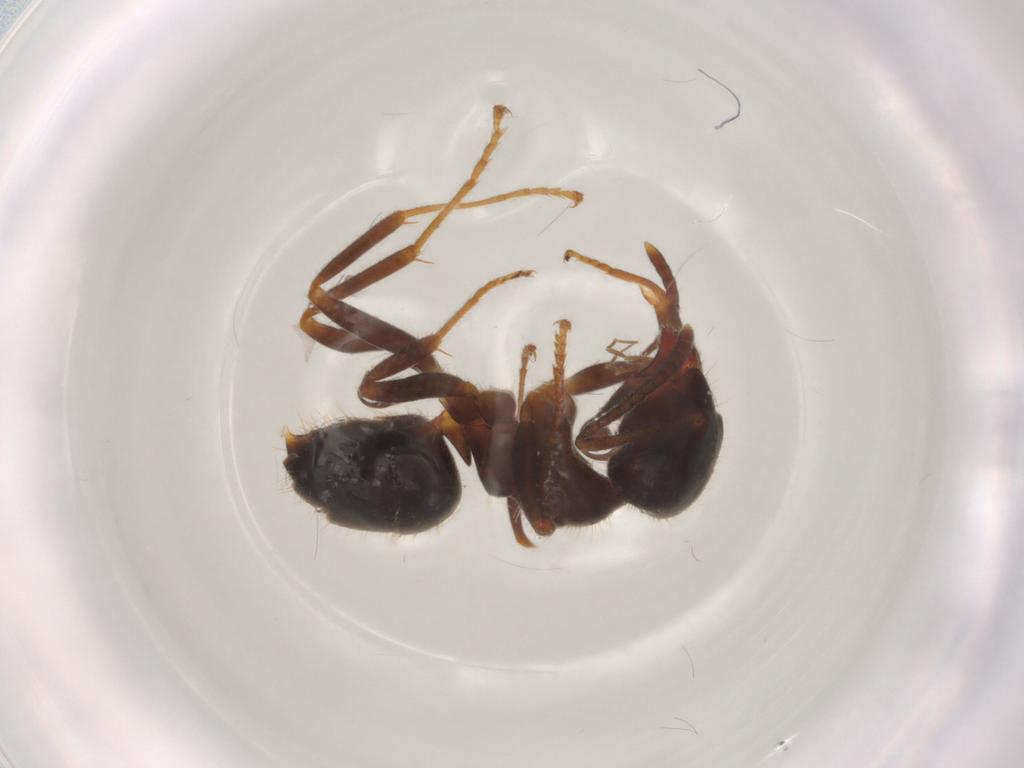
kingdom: Animalia
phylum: Arthropoda
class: Insecta
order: Hymenoptera
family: Formicidae
